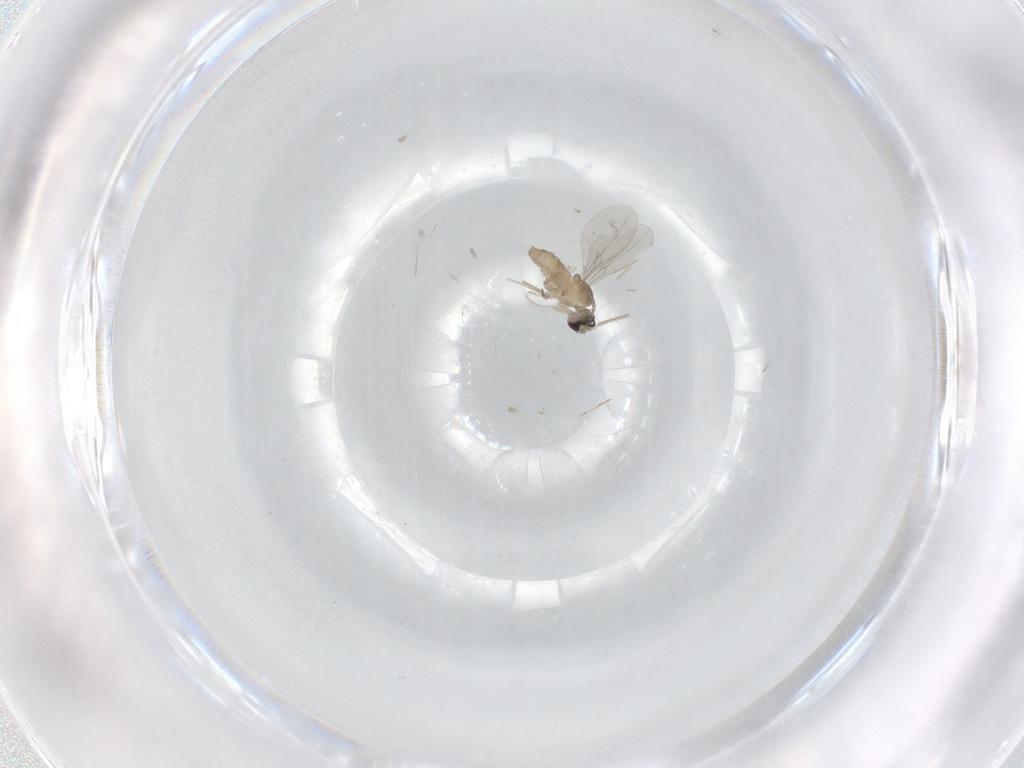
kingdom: Animalia
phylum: Arthropoda
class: Insecta
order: Diptera
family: Cecidomyiidae
